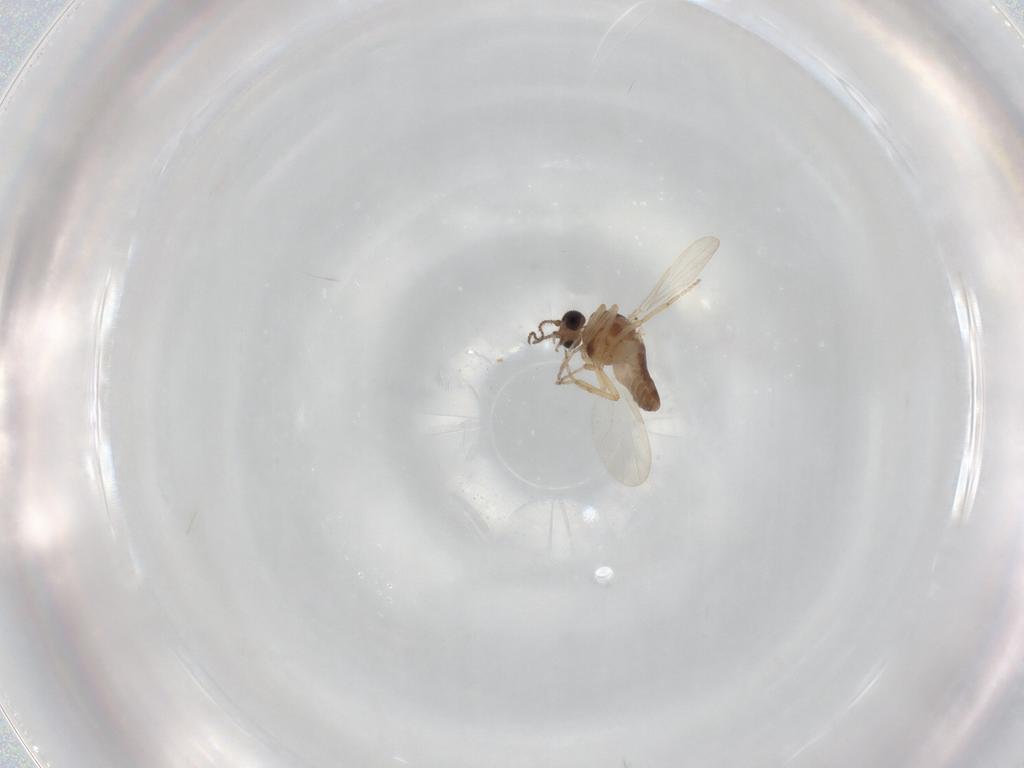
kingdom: Animalia
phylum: Arthropoda
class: Insecta
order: Diptera
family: Ceratopogonidae
